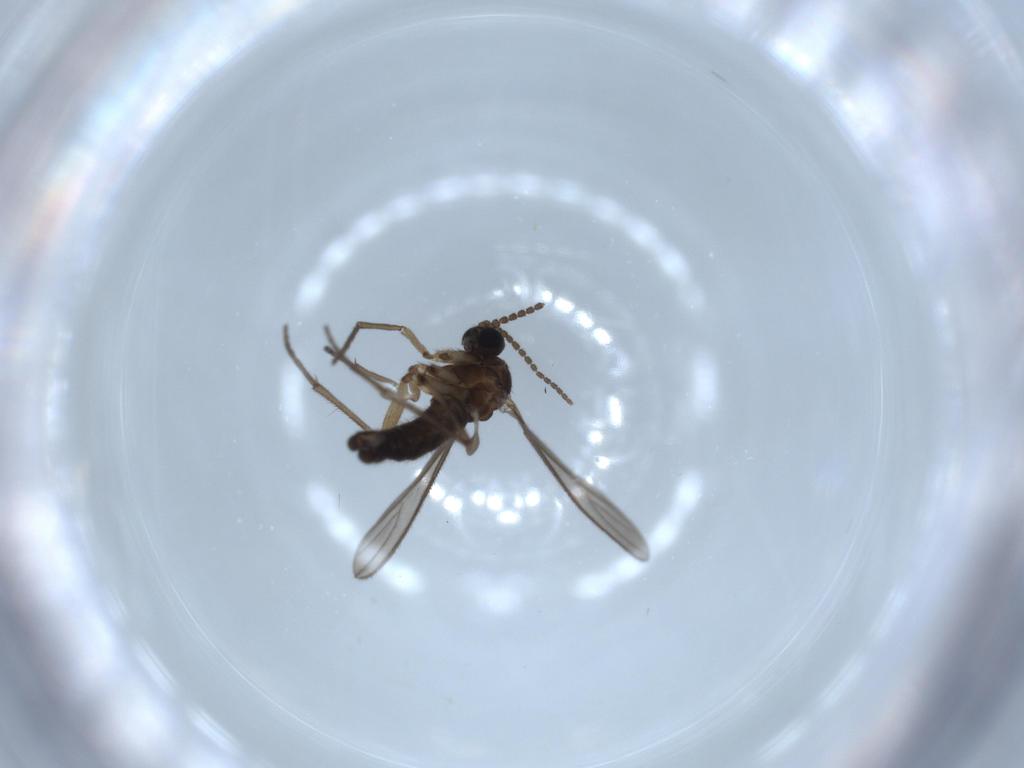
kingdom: Animalia
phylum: Arthropoda
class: Insecta
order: Diptera
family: Sciaridae
